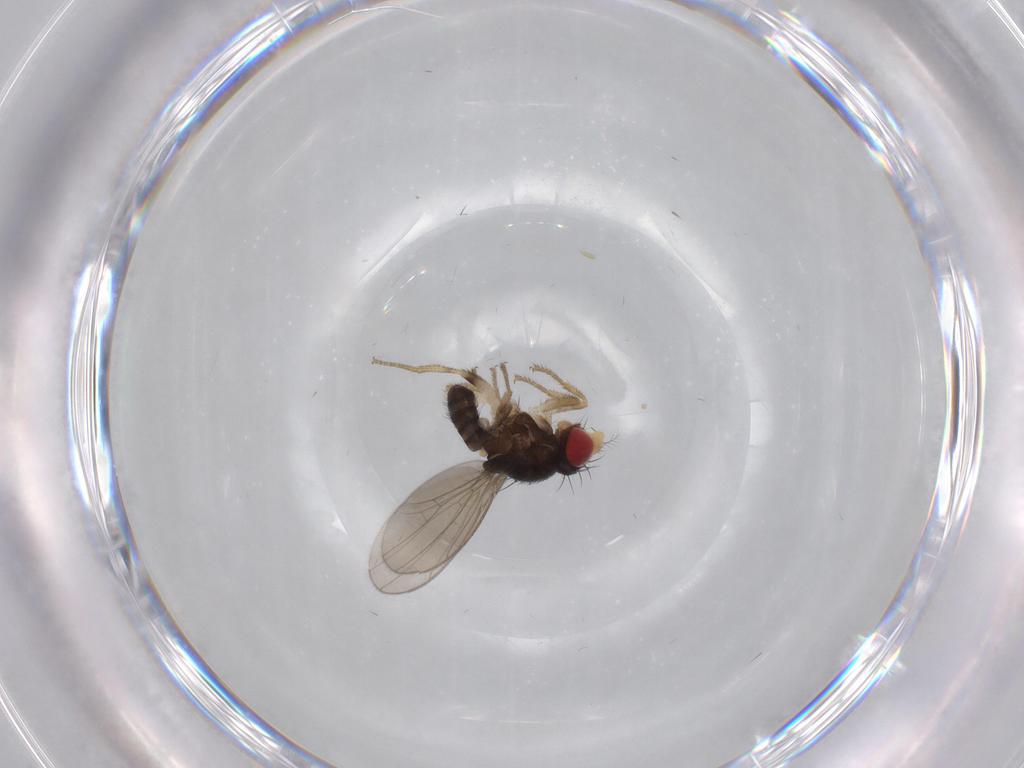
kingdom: Animalia
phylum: Arthropoda
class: Insecta
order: Diptera
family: Drosophilidae
